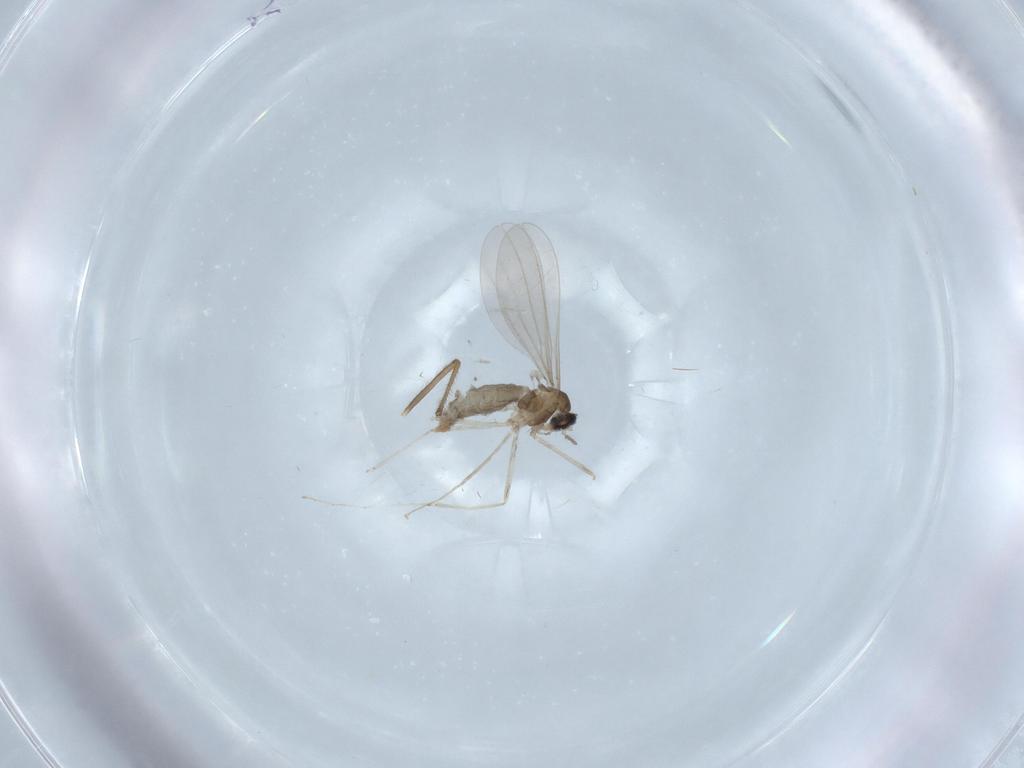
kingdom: Animalia
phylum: Arthropoda
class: Insecta
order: Diptera
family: Chironomidae
